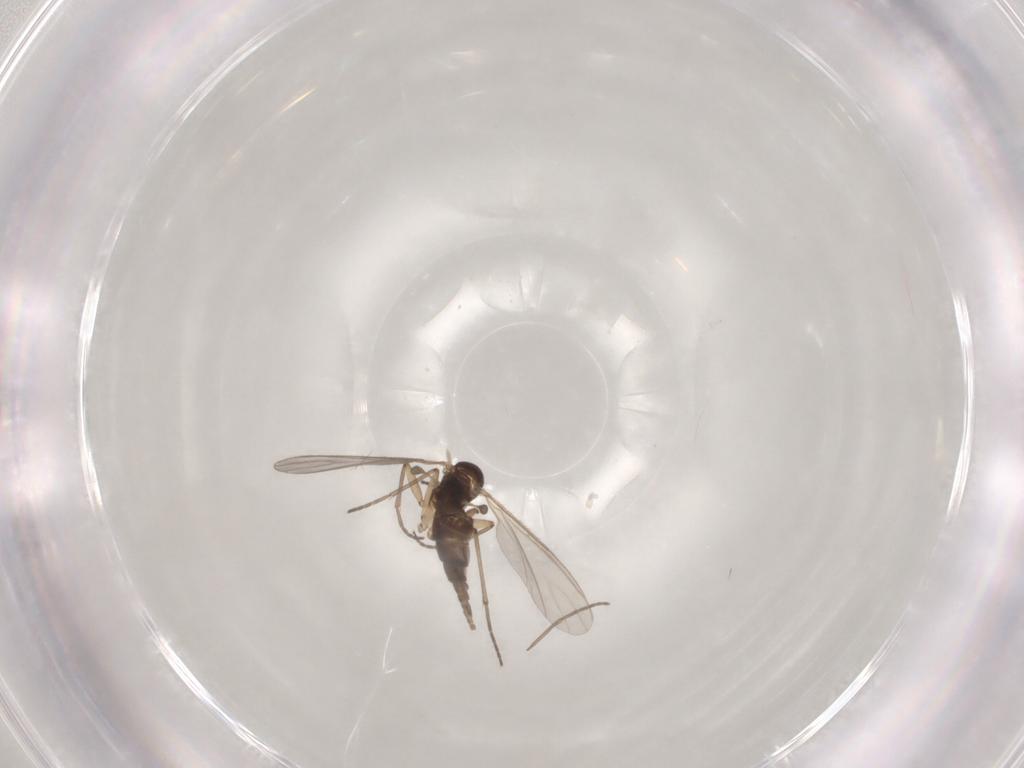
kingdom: Animalia
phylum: Arthropoda
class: Insecta
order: Diptera
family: Sciaridae
